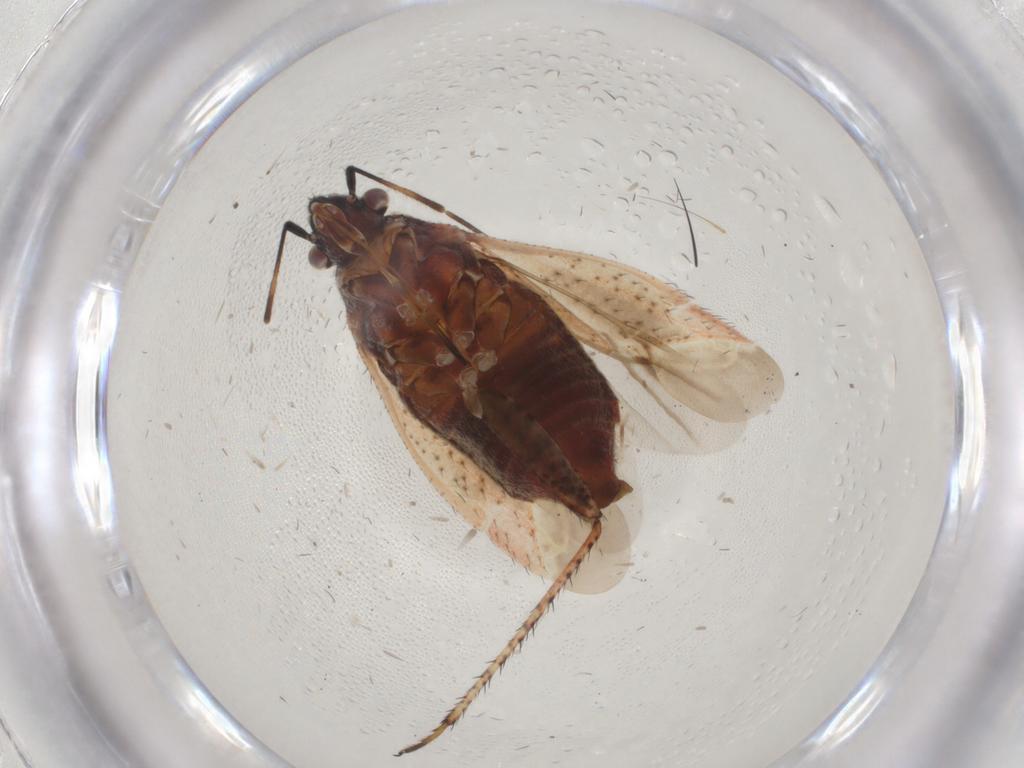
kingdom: Animalia
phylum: Arthropoda
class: Insecta
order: Hemiptera
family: Miridae
